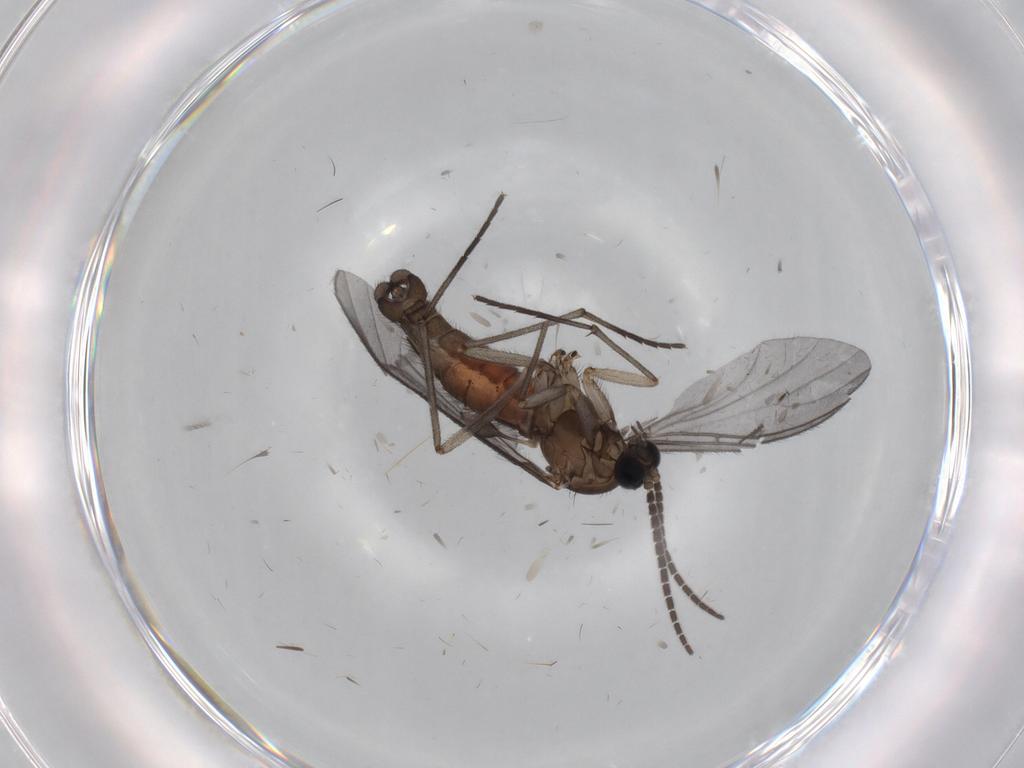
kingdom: Animalia
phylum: Arthropoda
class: Insecta
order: Diptera
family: Sciaridae
